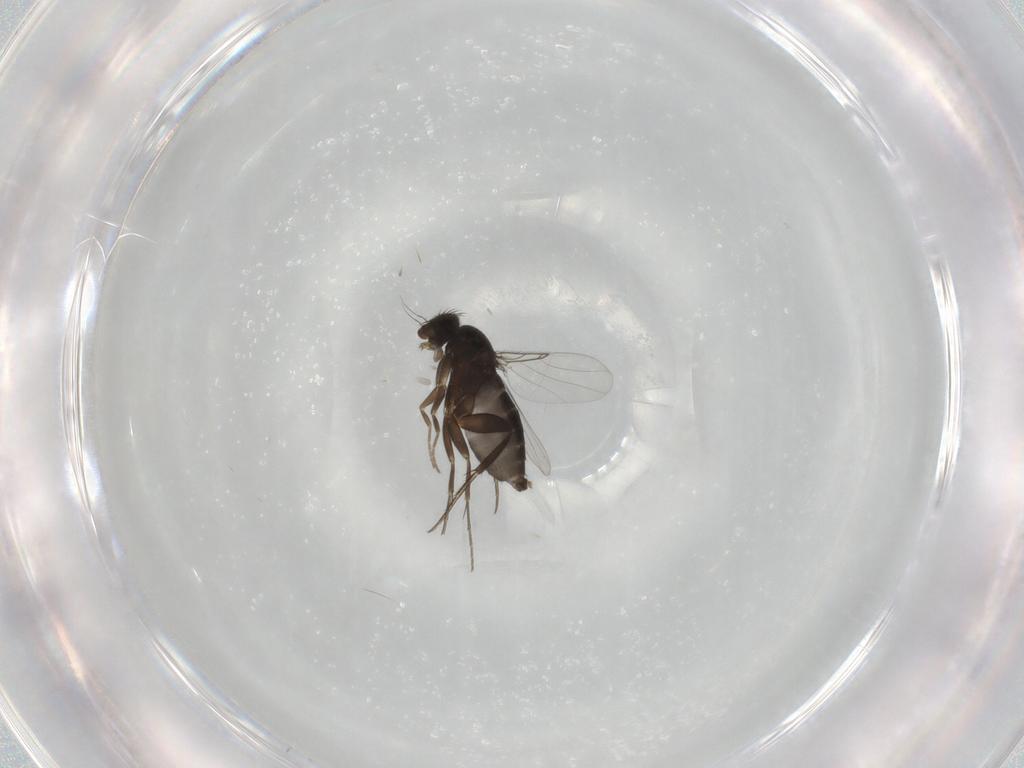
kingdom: Animalia
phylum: Arthropoda
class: Insecta
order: Diptera
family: Phoridae
